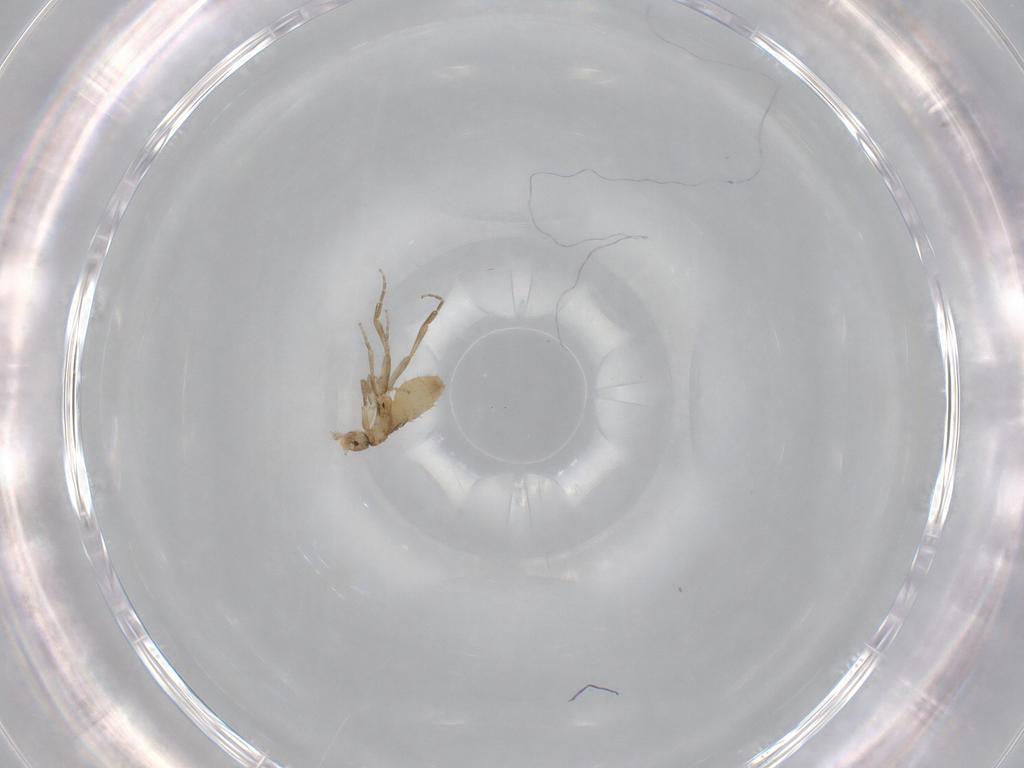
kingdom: Animalia
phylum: Arthropoda
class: Insecta
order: Diptera
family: Phoridae
